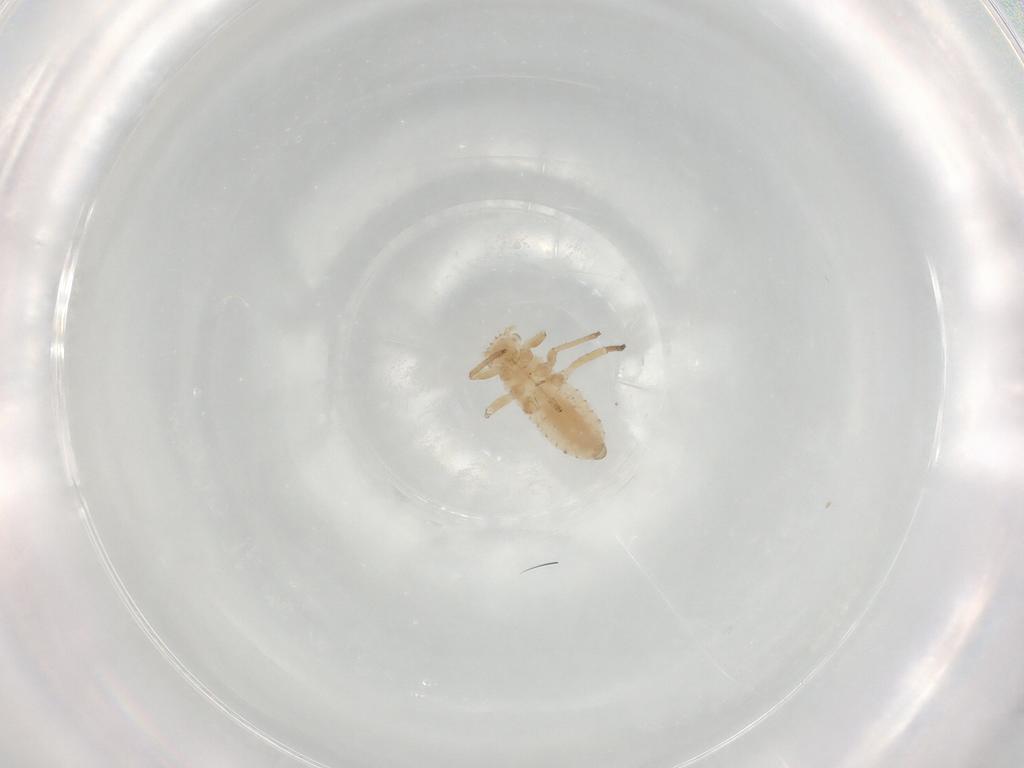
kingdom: Animalia
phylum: Arthropoda
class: Insecta
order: Hemiptera
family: Aphididae
